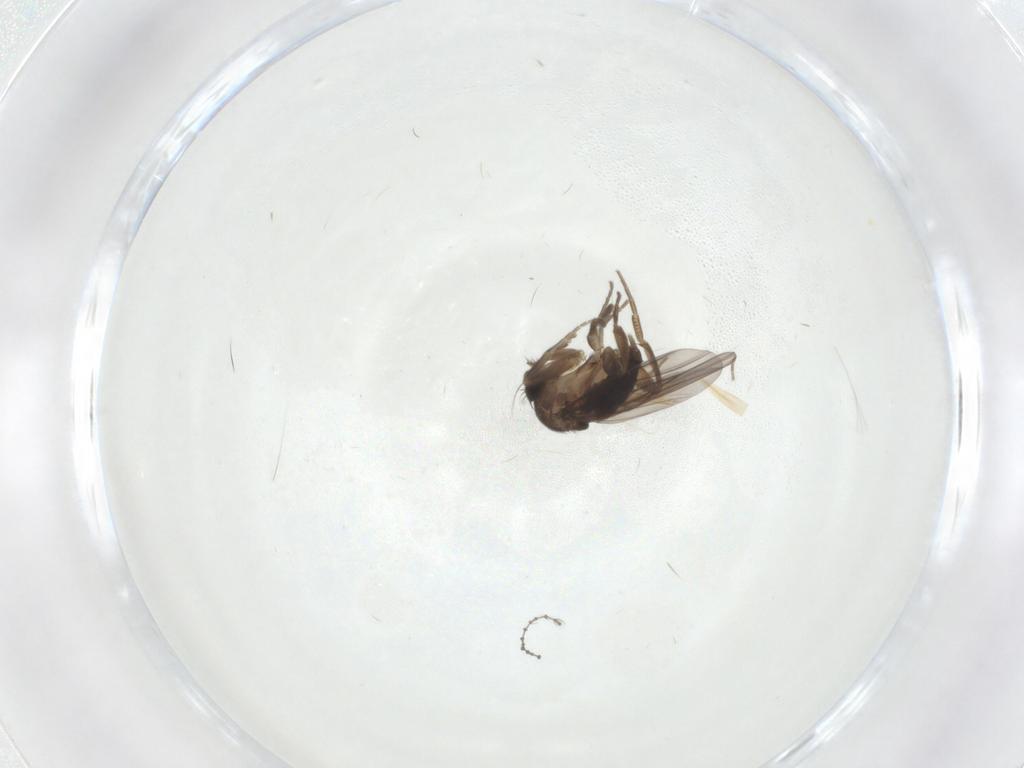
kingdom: Animalia
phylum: Arthropoda
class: Insecta
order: Diptera
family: Phoridae
